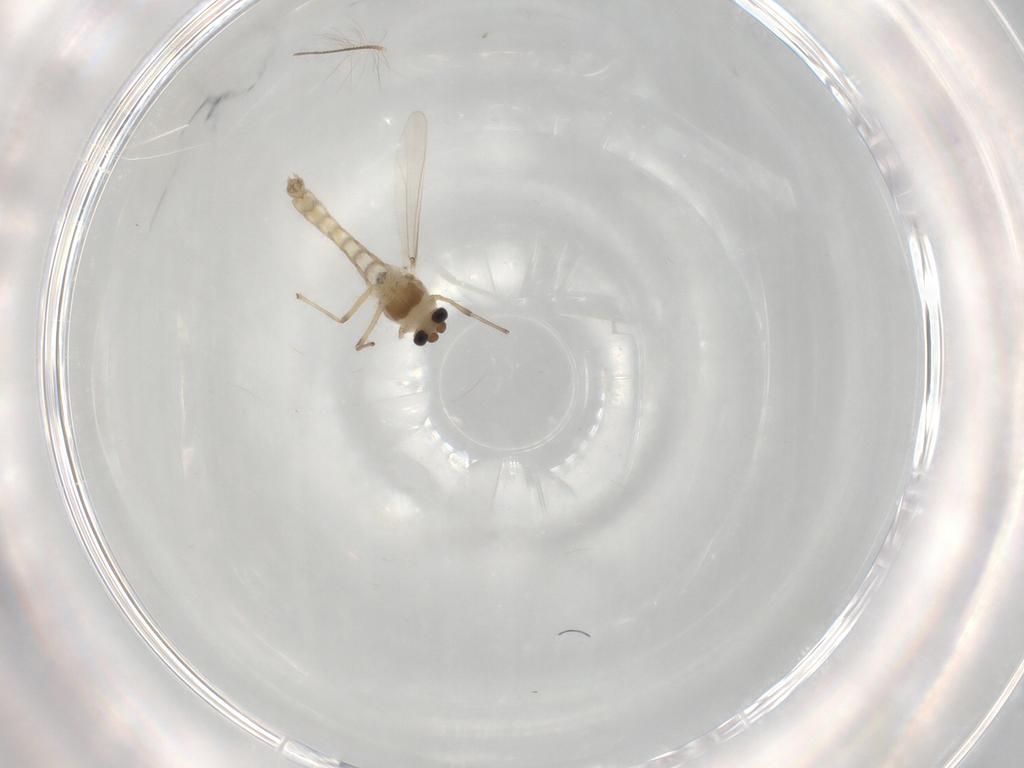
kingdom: Animalia
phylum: Arthropoda
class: Insecta
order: Diptera
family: Chironomidae
